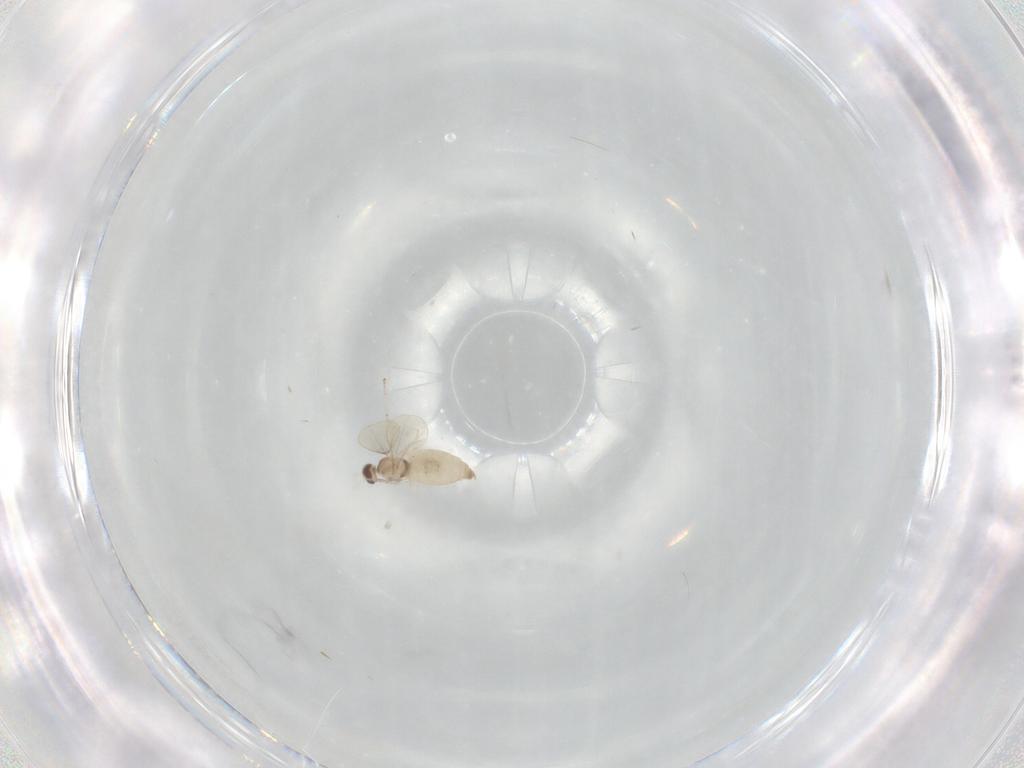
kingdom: Animalia
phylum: Arthropoda
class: Insecta
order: Diptera
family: Cecidomyiidae
